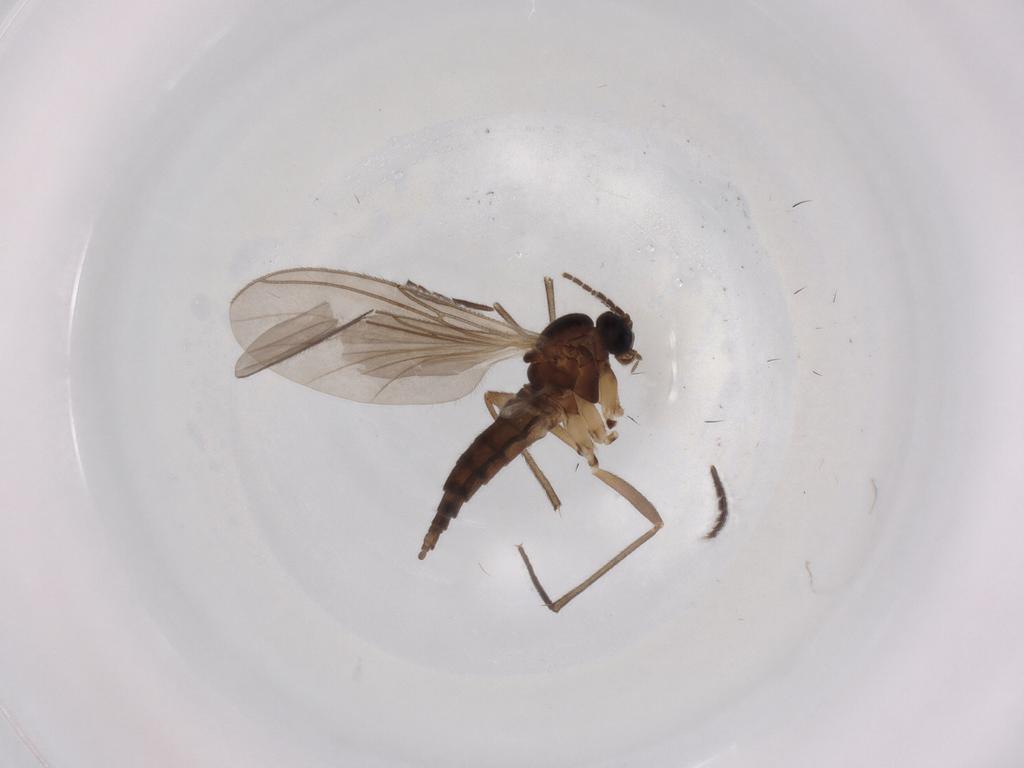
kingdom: Animalia
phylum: Arthropoda
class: Insecta
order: Diptera
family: Sciaridae
